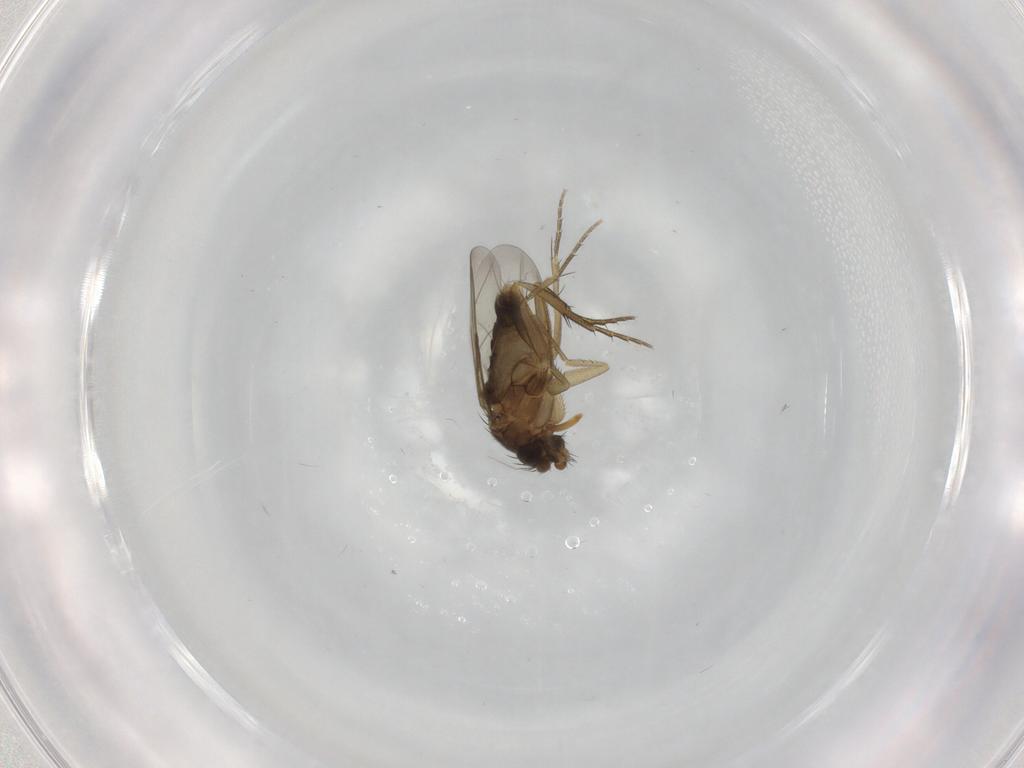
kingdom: Animalia
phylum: Arthropoda
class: Insecta
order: Diptera
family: Phoridae
